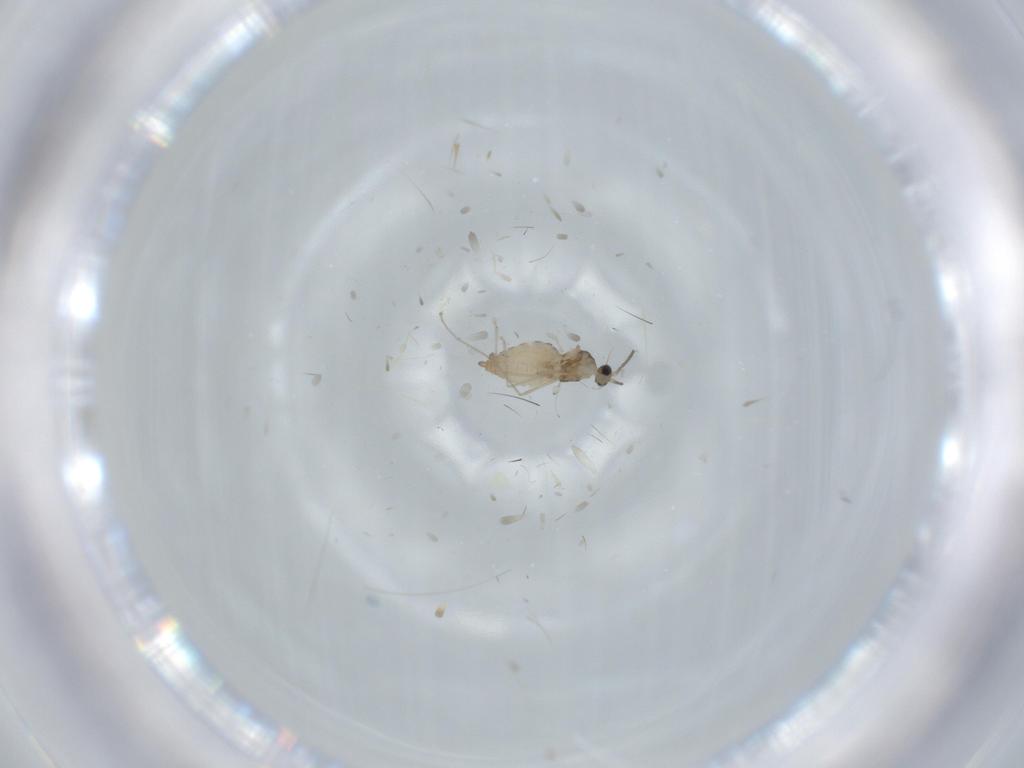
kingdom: Animalia
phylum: Arthropoda
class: Insecta
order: Diptera
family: Cecidomyiidae
